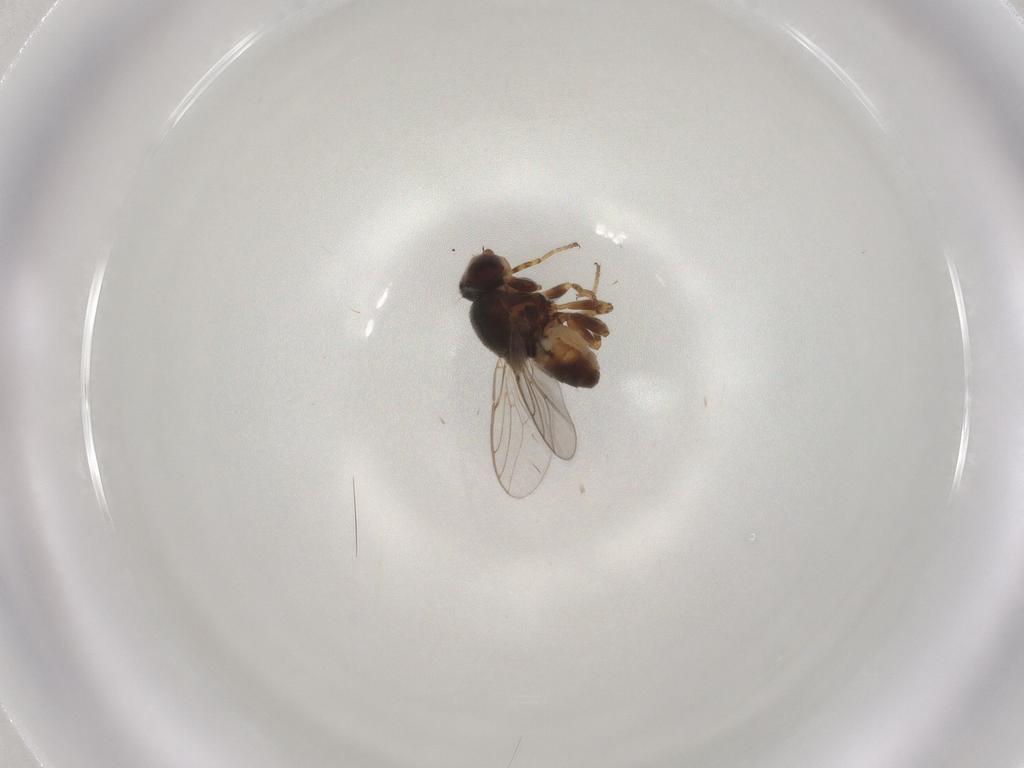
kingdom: Animalia
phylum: Arthropoda
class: Insecta
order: Diptera
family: Chloropidae
